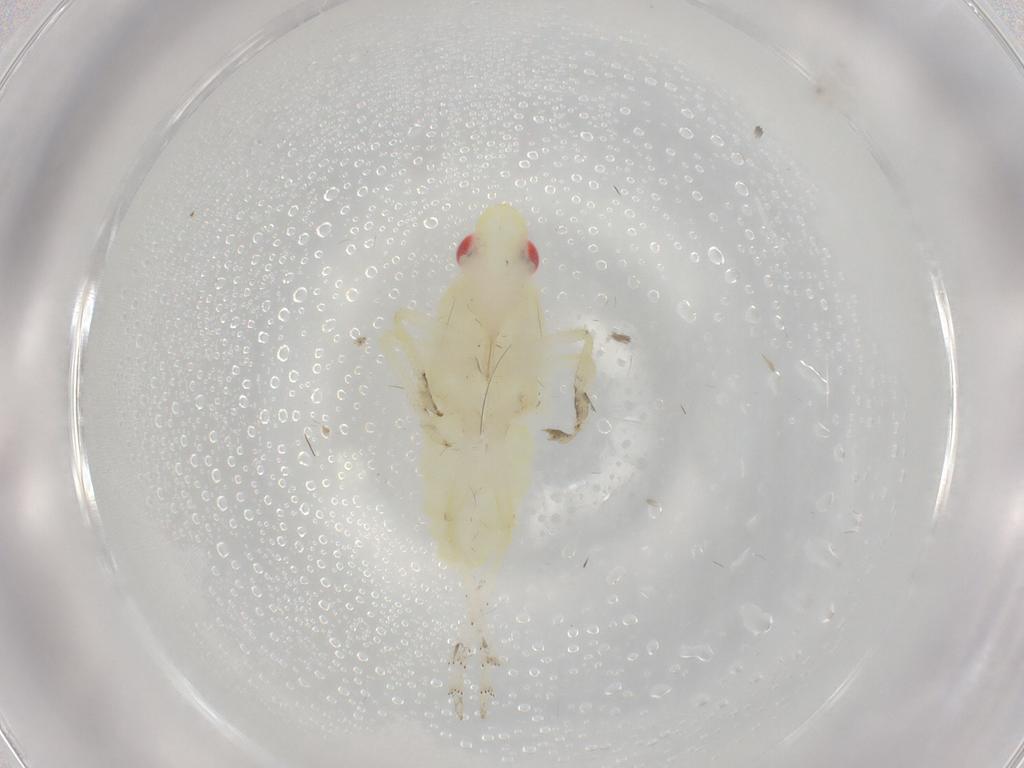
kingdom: Animalia
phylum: Arthropoda
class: Insecta
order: Hemiptera
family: Tropiduchidae
